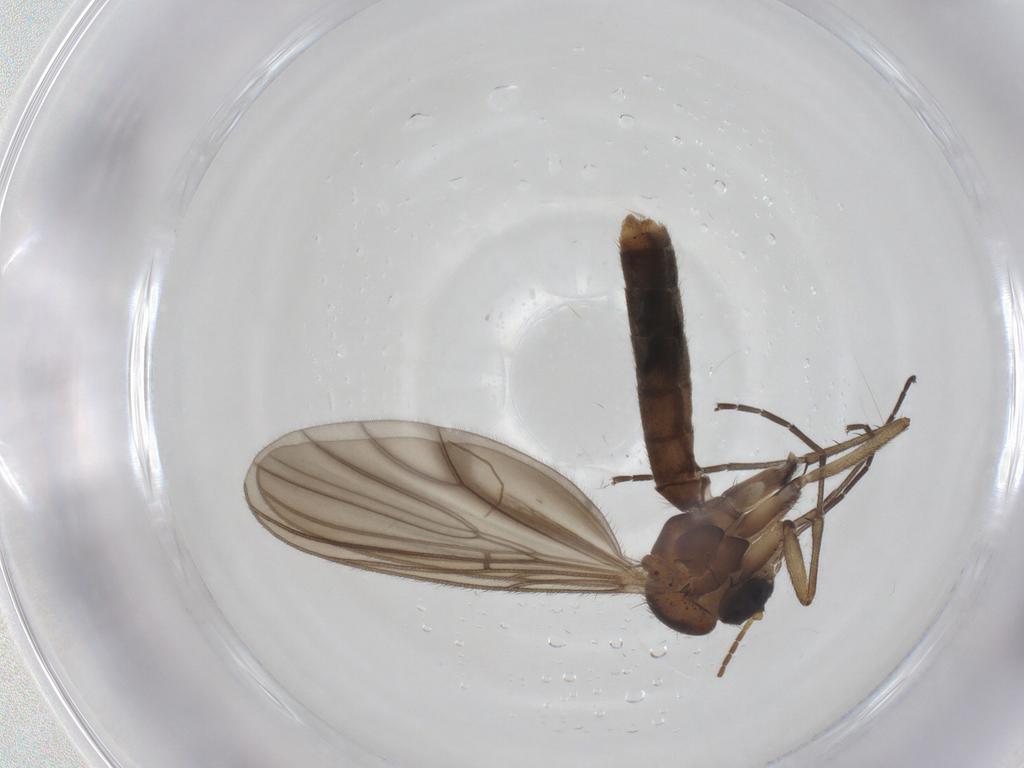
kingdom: Animalia
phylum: Arthropoda
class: Insecta
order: Diptera
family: Mycetophilidae
